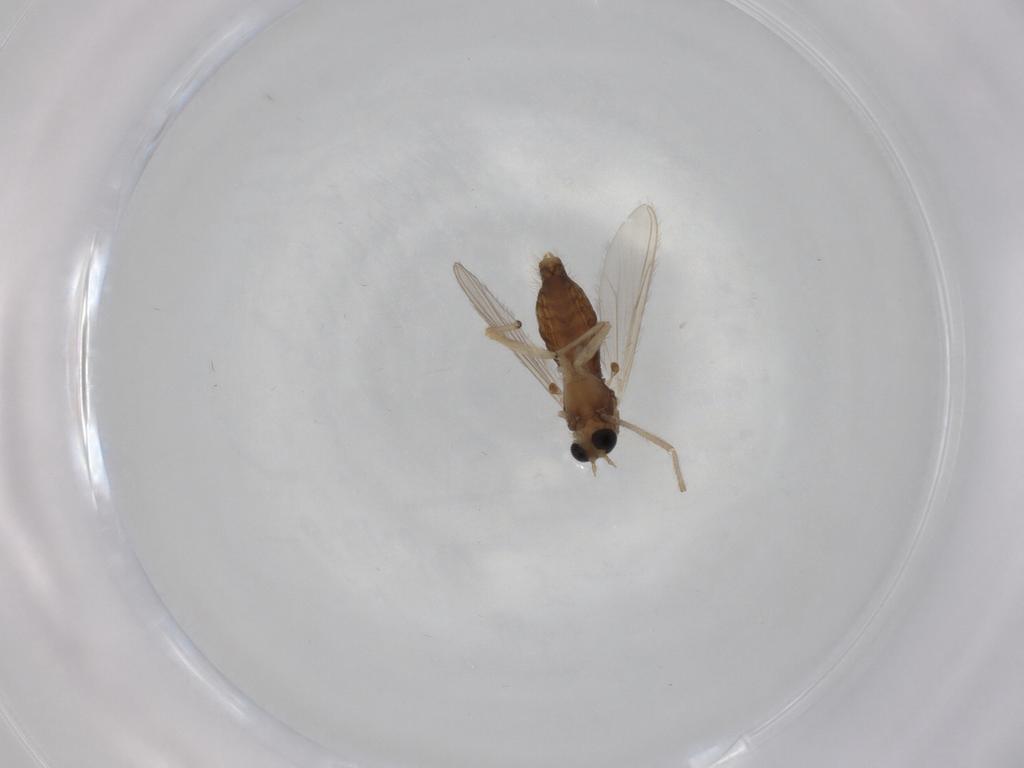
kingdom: Animalia
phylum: Arthropoda
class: Insecta
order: Diptera
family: Chironomidae
